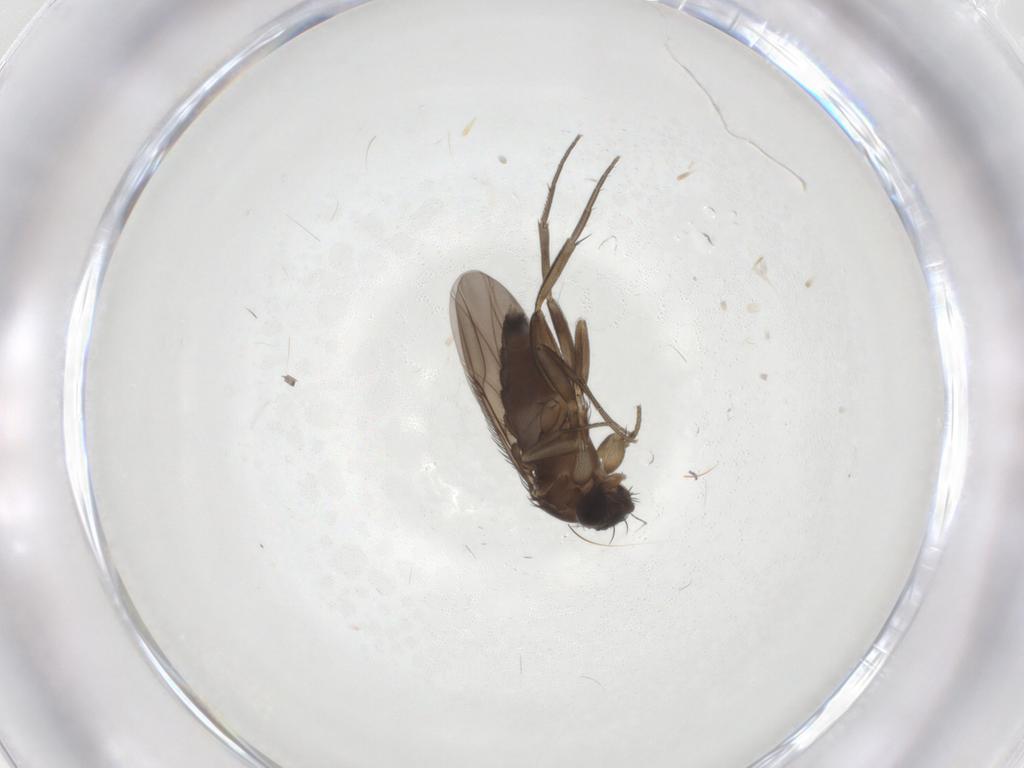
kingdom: Animalia
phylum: Arthropoda
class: Insecta
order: Diptera
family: Phoridae
